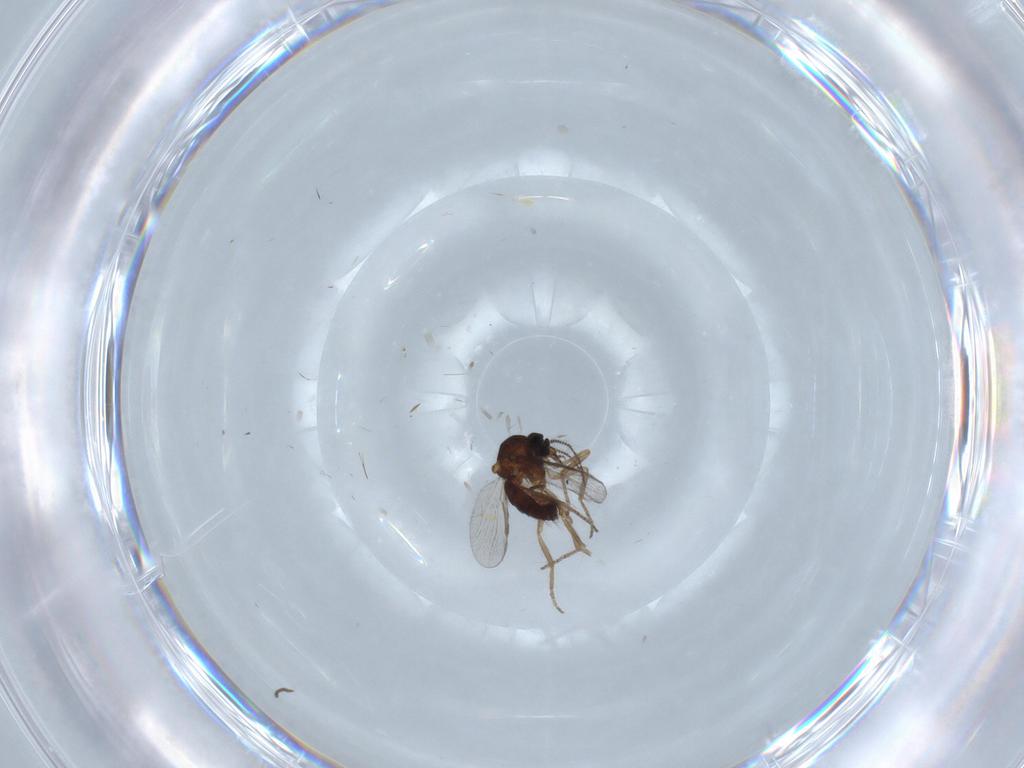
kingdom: Animalia
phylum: Arthropoda
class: Insecta
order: Diptera
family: Ceratopogonidae
